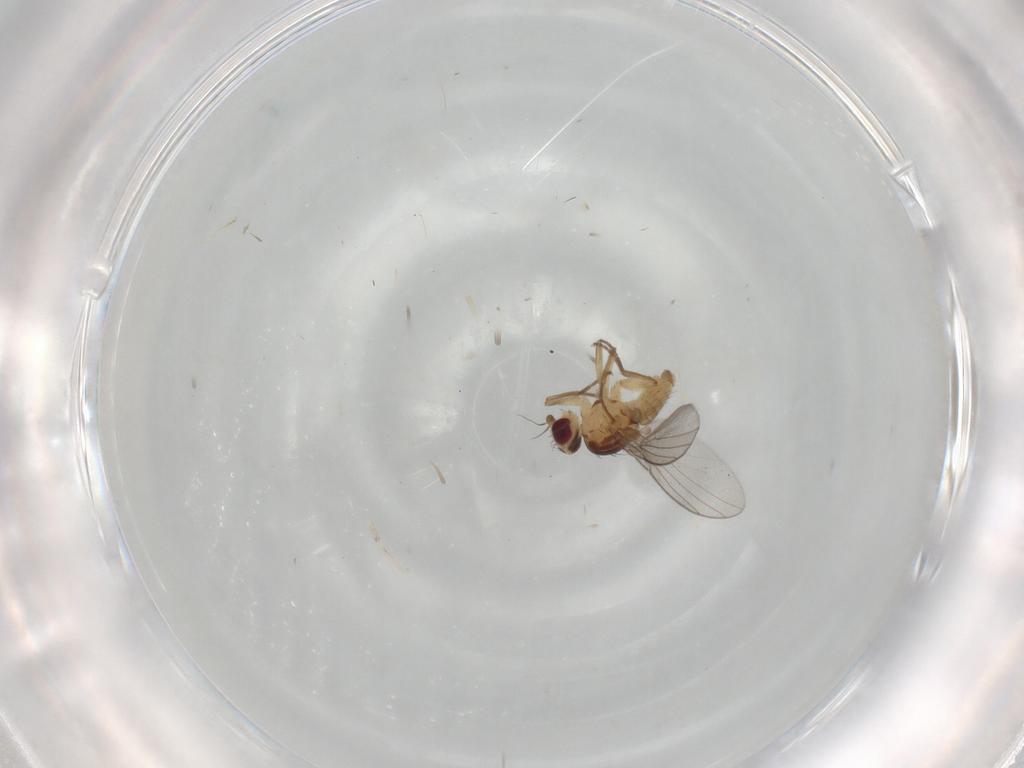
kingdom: Animalia
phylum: Arthropoda
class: Insecta
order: Diptera
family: Agromyzidae
